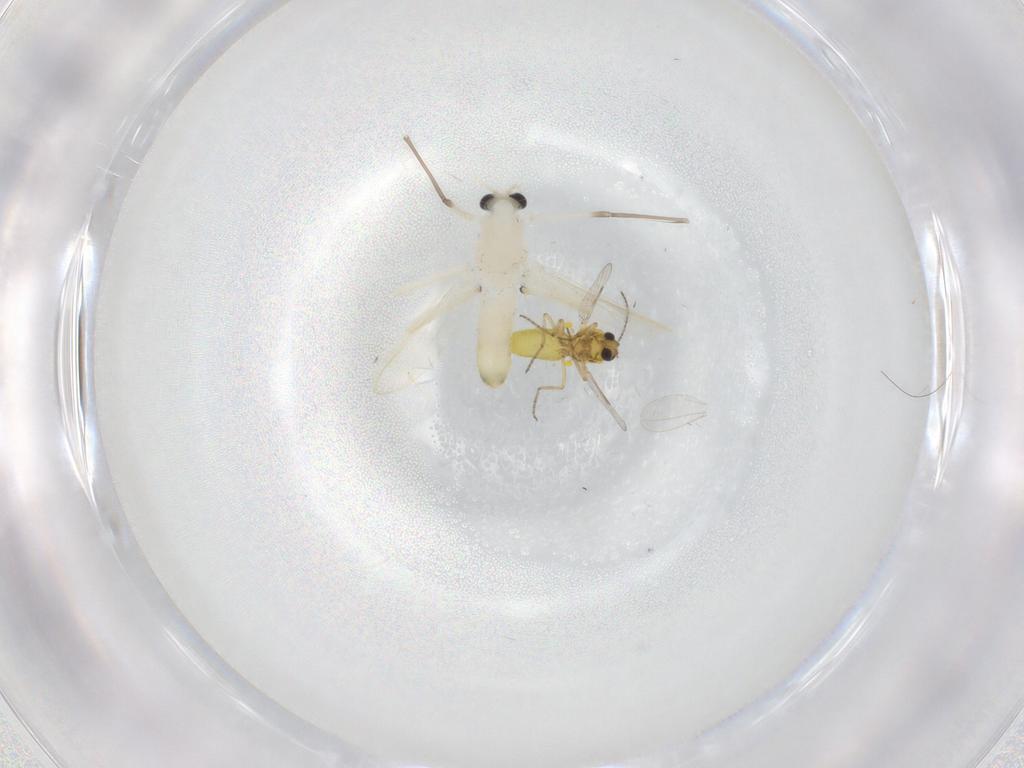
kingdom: Animalia
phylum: Arthropoda
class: Insecta
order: Diptera
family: Ceratopogonidae
